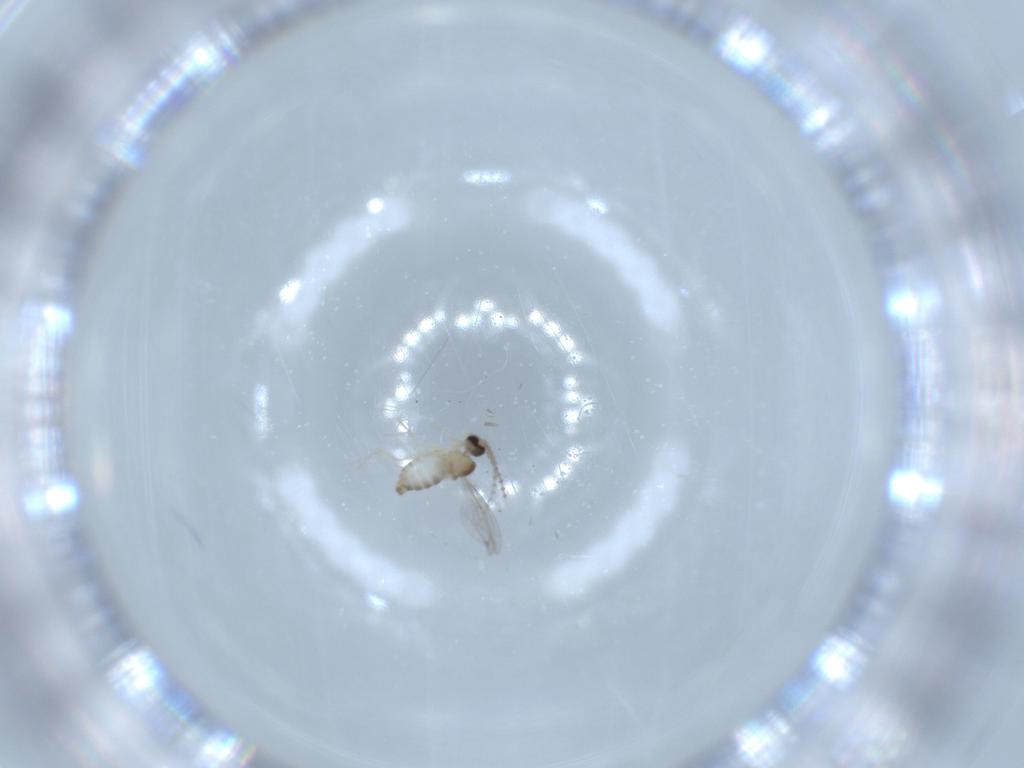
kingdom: Animalia
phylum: Arthropoda
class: Insecta
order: Diptera
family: Cecidomyiidae
